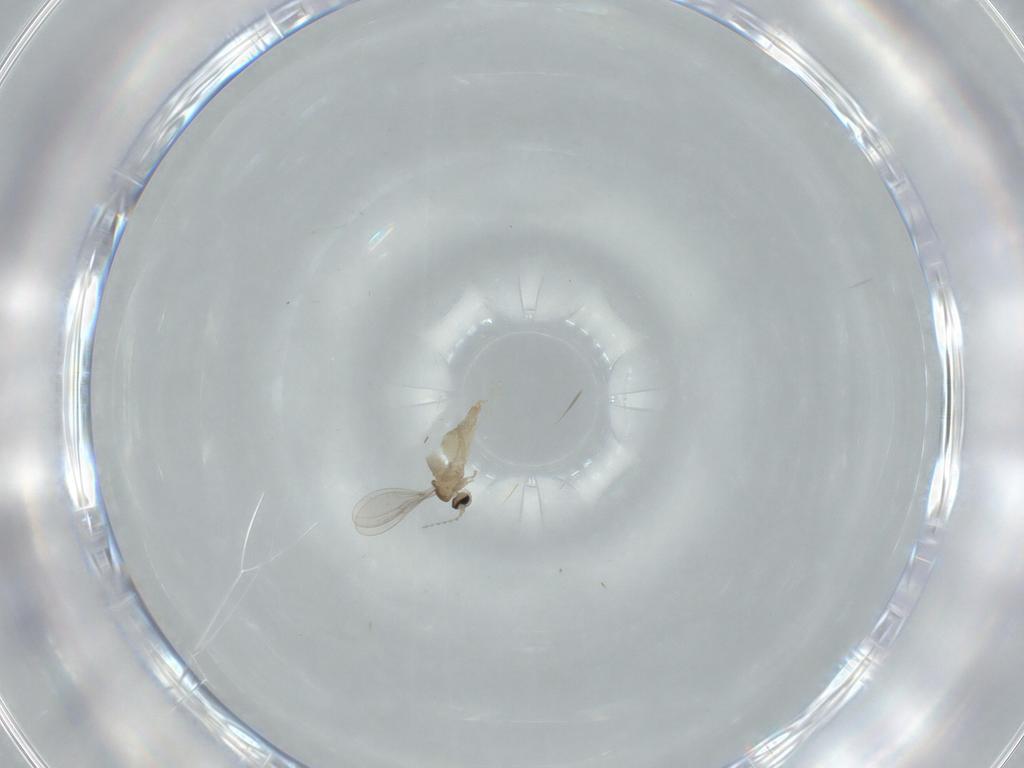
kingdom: Animalia
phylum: Arthropoda
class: Insecta
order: Diptera
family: Cecidomyiidae
